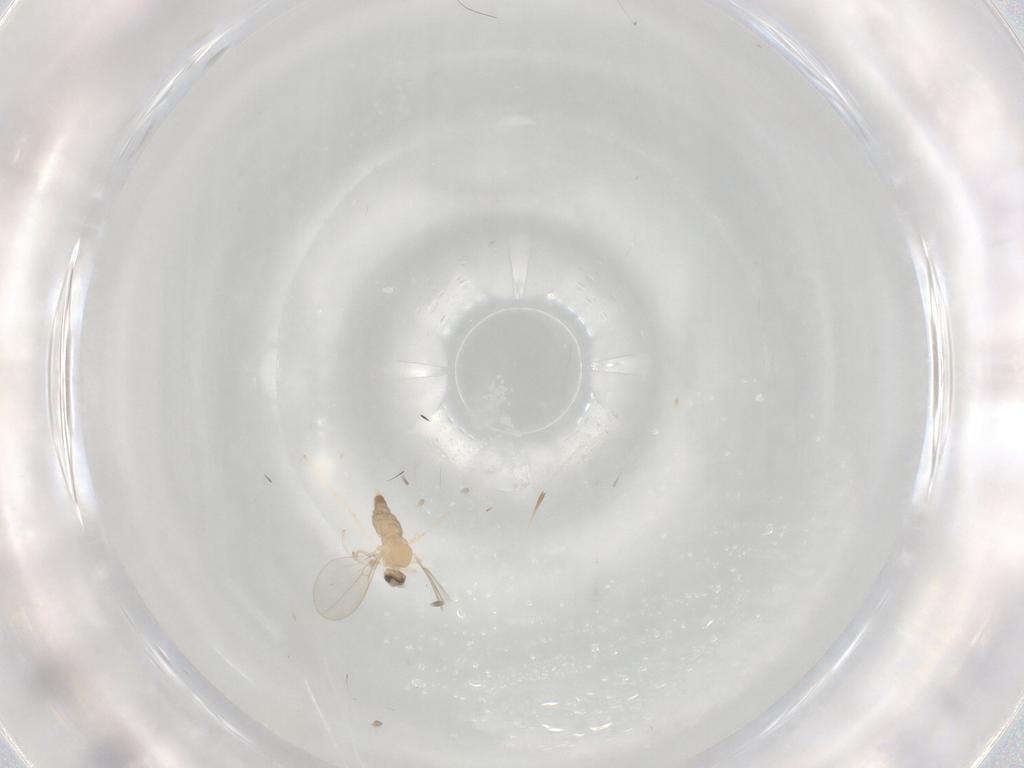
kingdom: Animalia
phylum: Arthropoda
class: Insecta
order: Diptera
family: Cecidomyiidae
